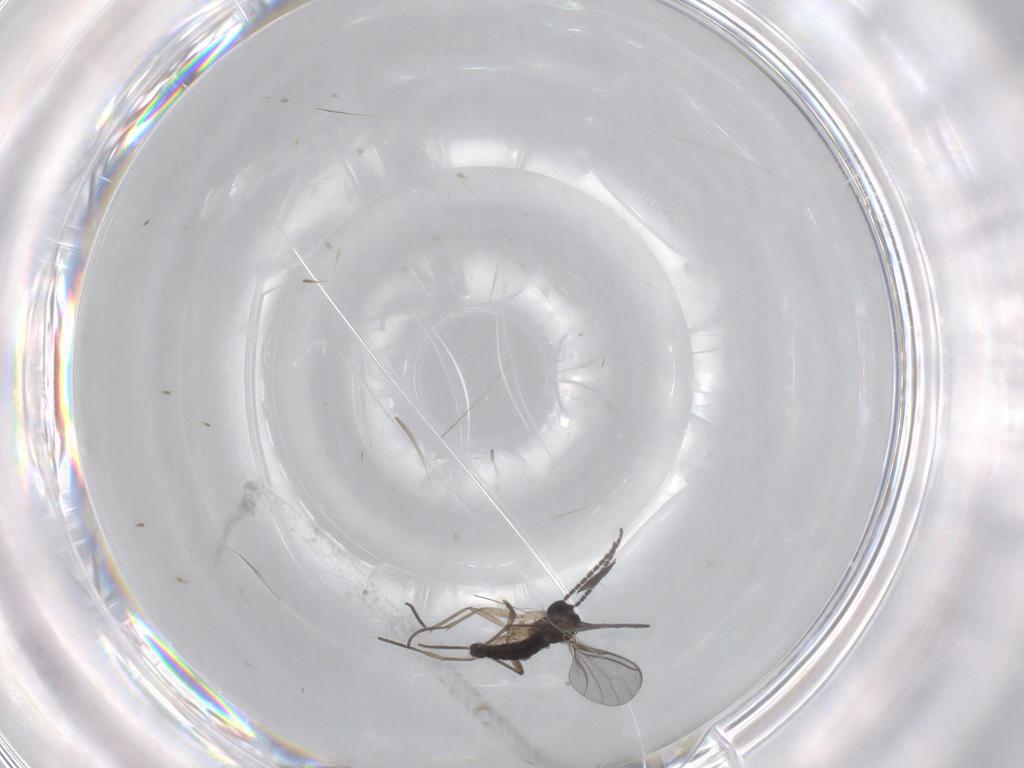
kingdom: Animalia
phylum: Arthropoda
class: Insecta
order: Diptera
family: Sciaridae
